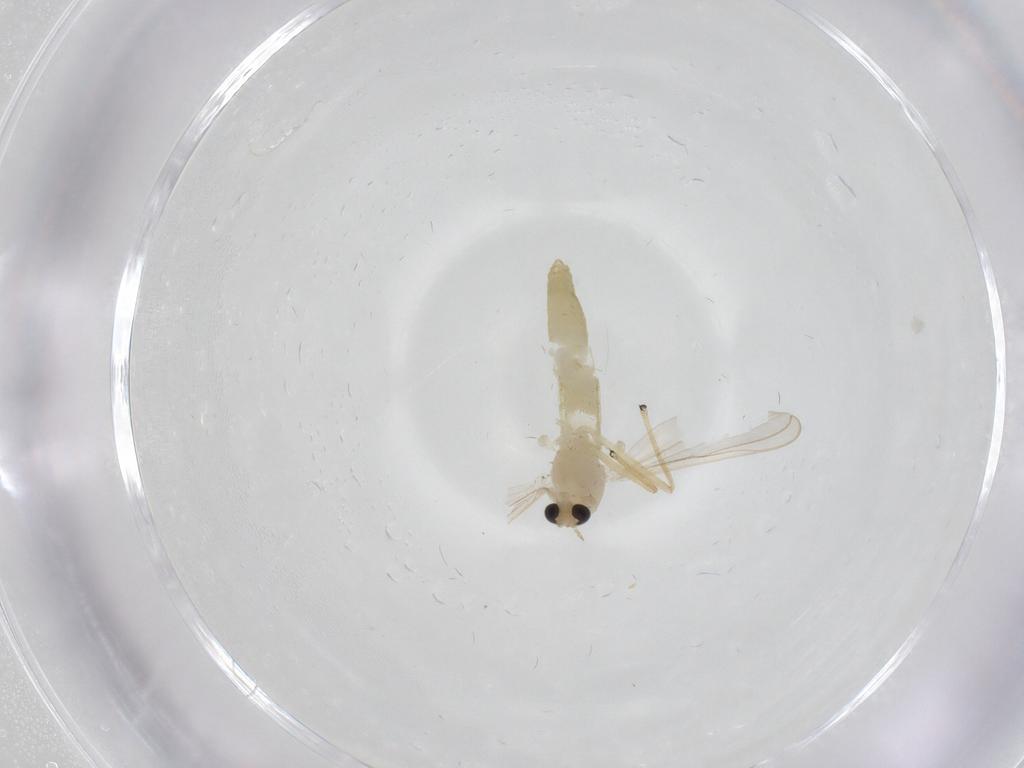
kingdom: Animalia
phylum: Arthropoda
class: Insecta
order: Diptera
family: Chironomidae
